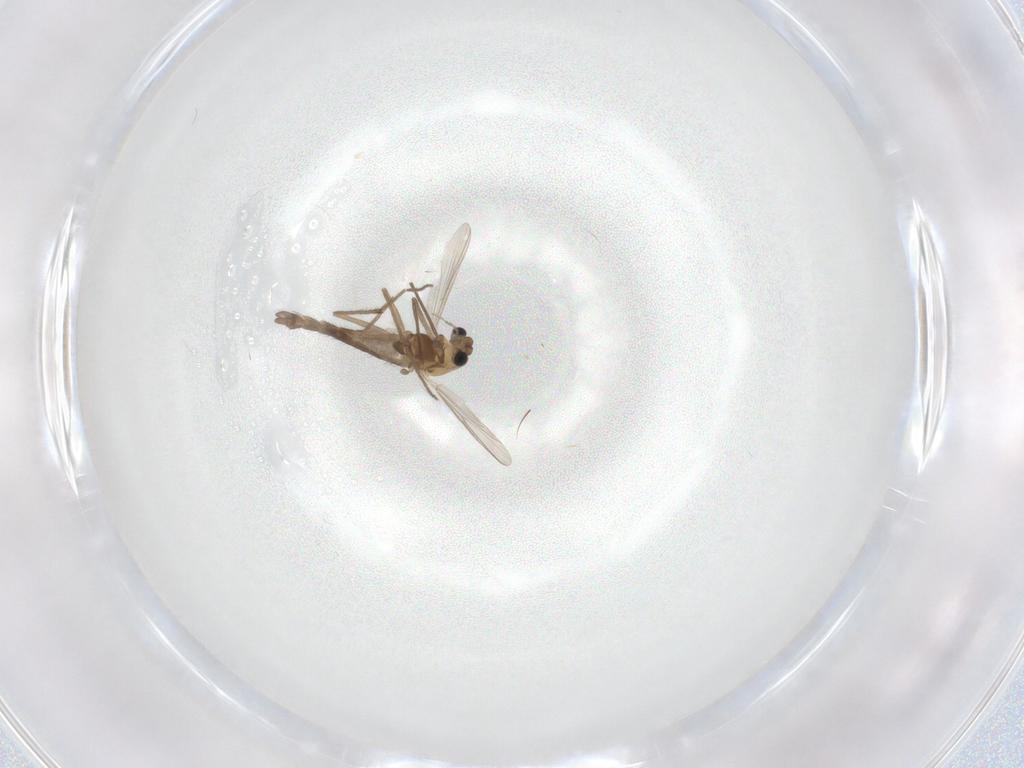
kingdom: Animalia
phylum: Arthropoda
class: Insecta
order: Diptera
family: Chironomidae
